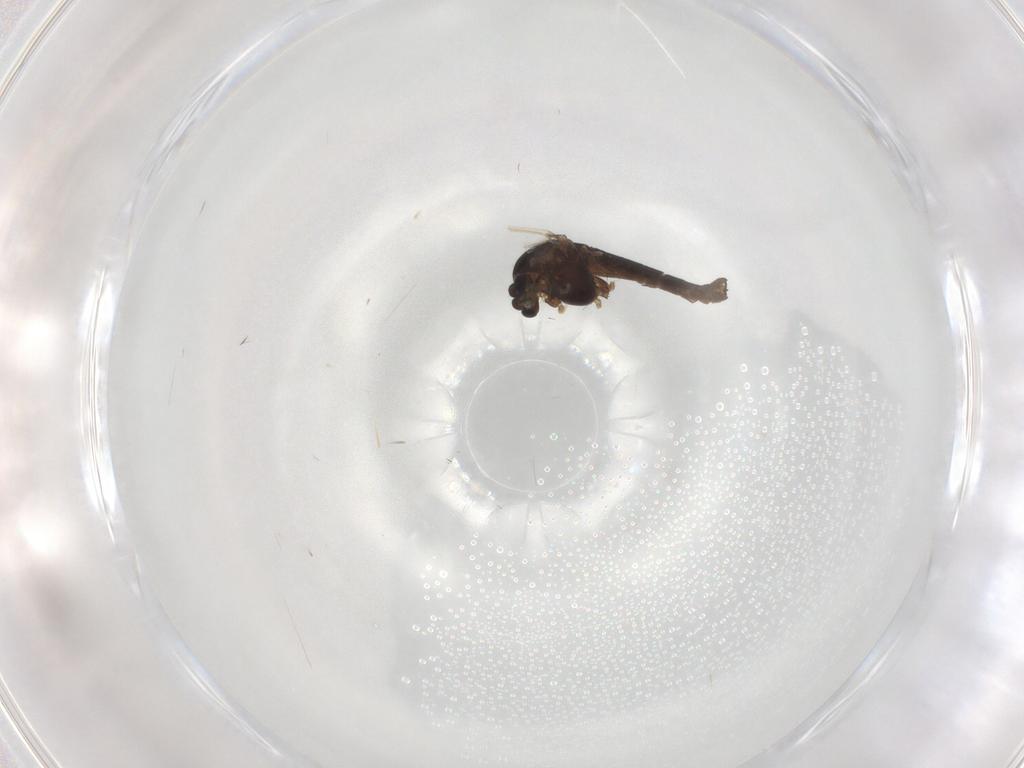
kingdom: Animalia
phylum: Arthropoda
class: Insecta
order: Diptera
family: Chironomidae
